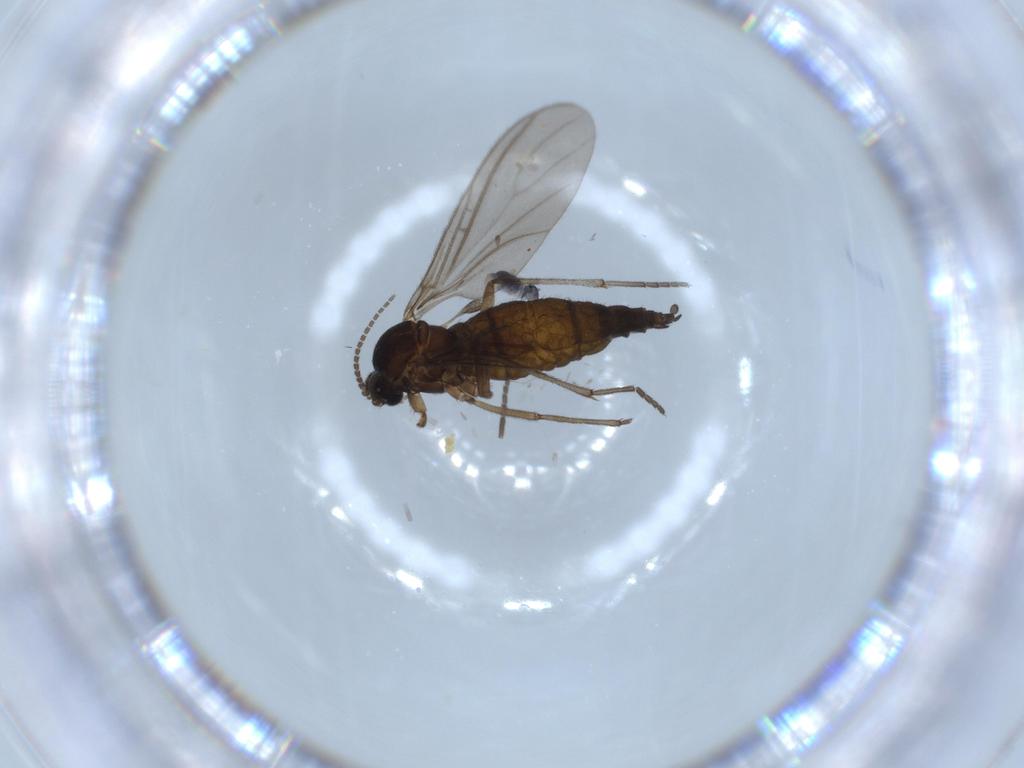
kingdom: Animalia
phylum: Arthropoda
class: Insecta
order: Diptera
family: Sciaridae
